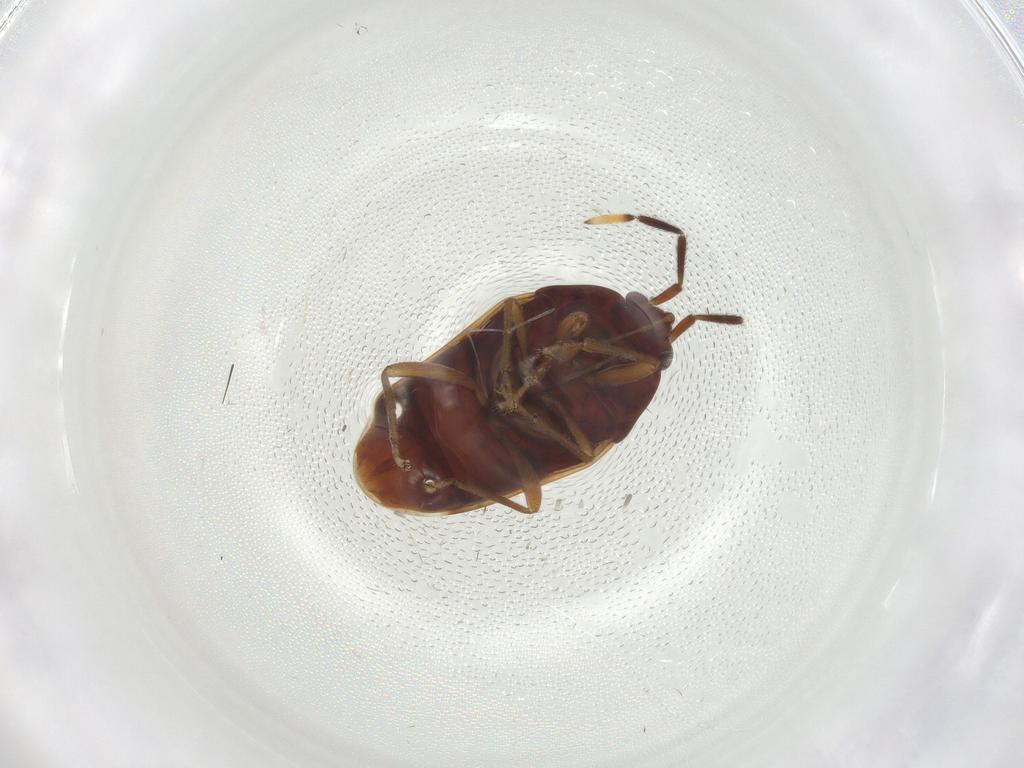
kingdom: Animalia
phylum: Arthropoda
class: Insecta
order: Hemiptera
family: Rhyparochromidae
